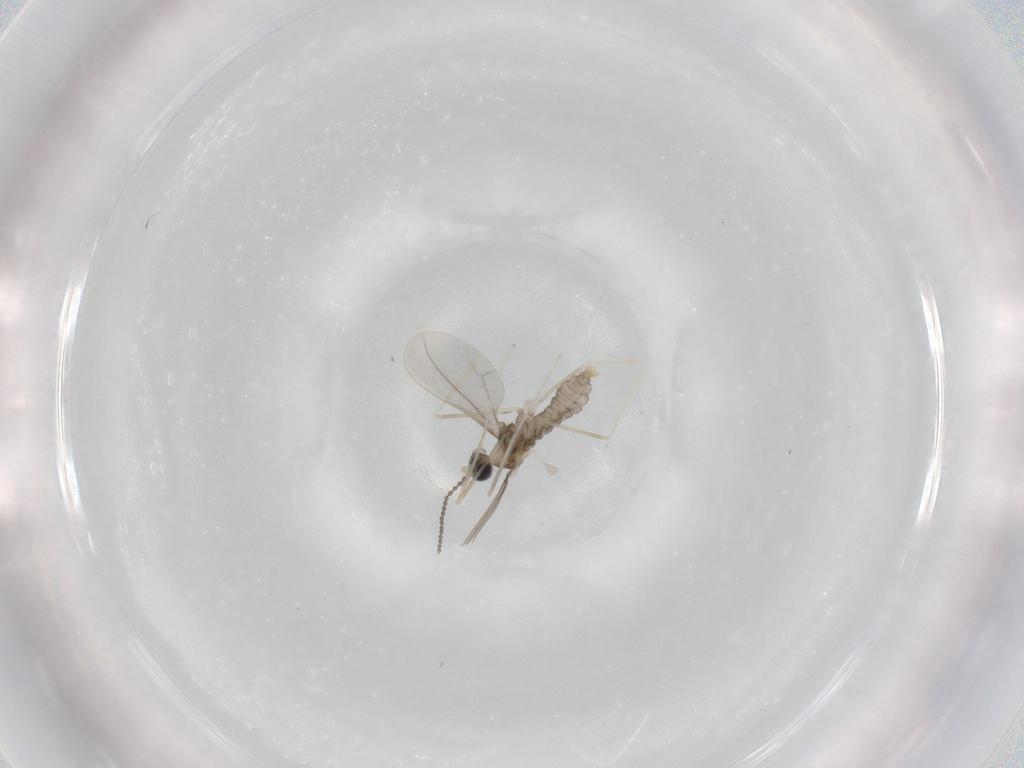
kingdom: Animalia
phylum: Arthropoda
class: Insecta
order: Diptera
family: Cecidomyiidae
